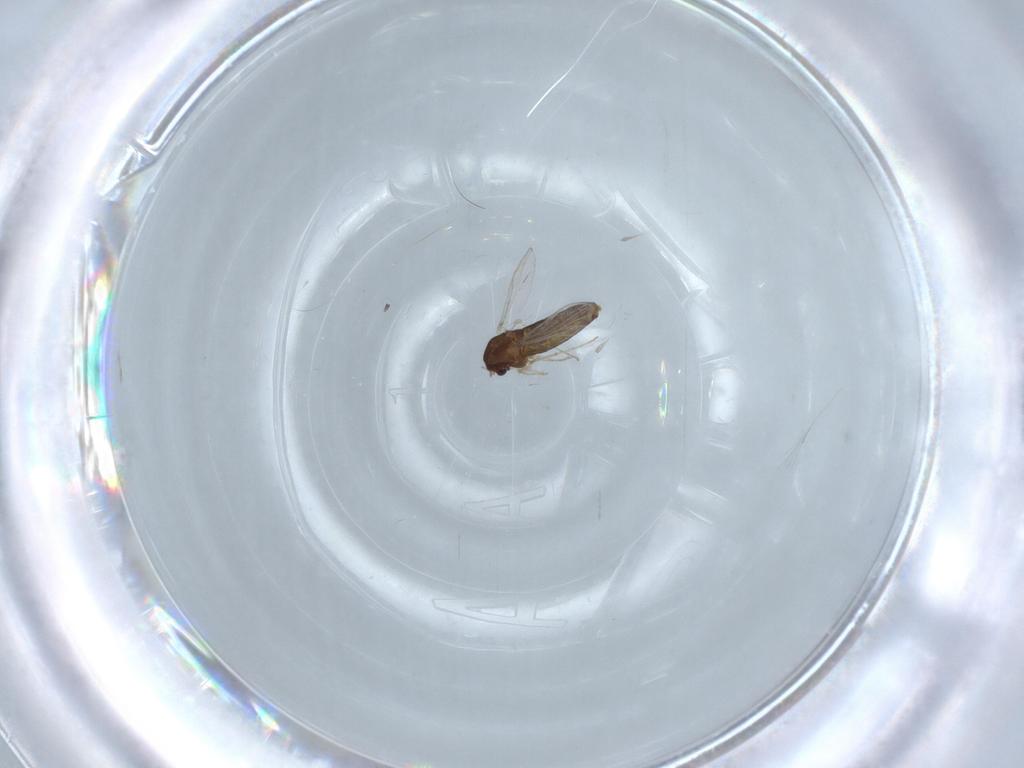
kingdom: Animalia
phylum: Arthropoda
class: Insecta
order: Diptera
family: Chironomidae
